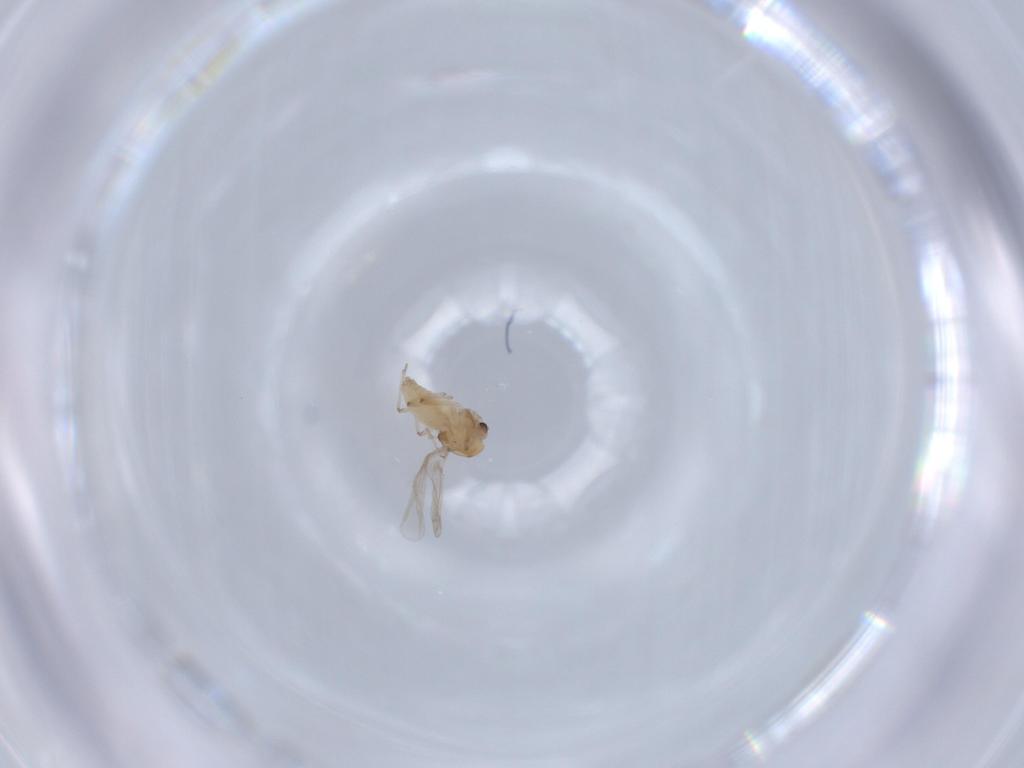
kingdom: Animalia
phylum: Arthropoda
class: Insecta
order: Diptera
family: Chironomidae
